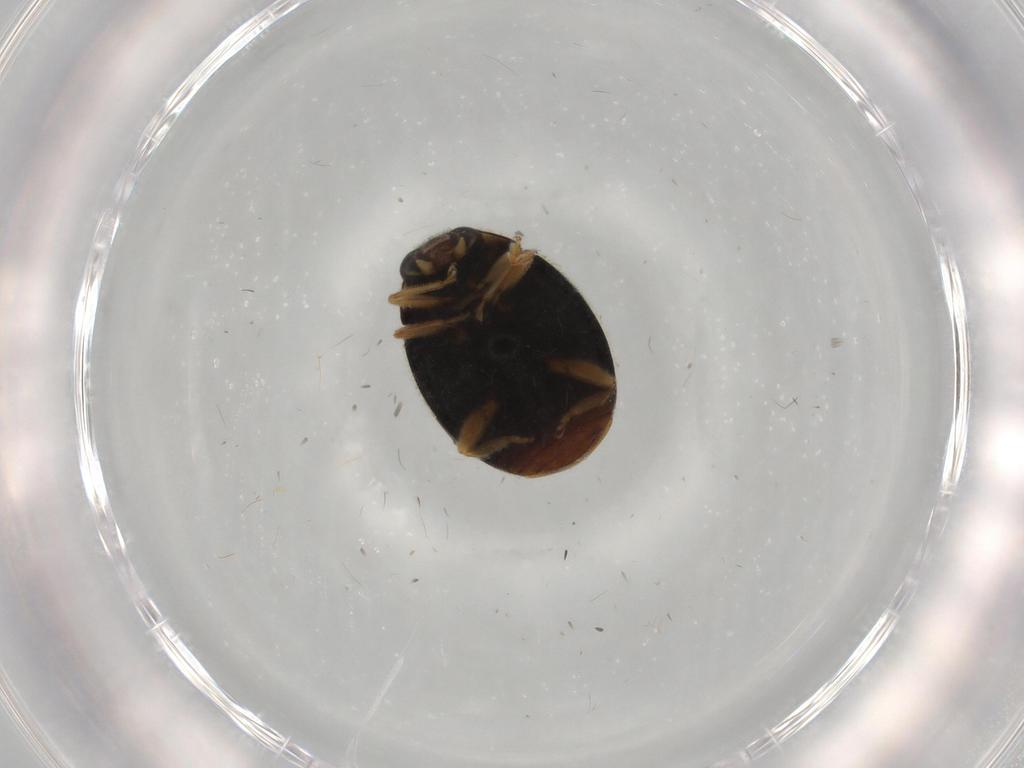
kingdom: Animalia
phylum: Arthropoda
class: Insecta
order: Coleoptera
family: Coccinellidae
